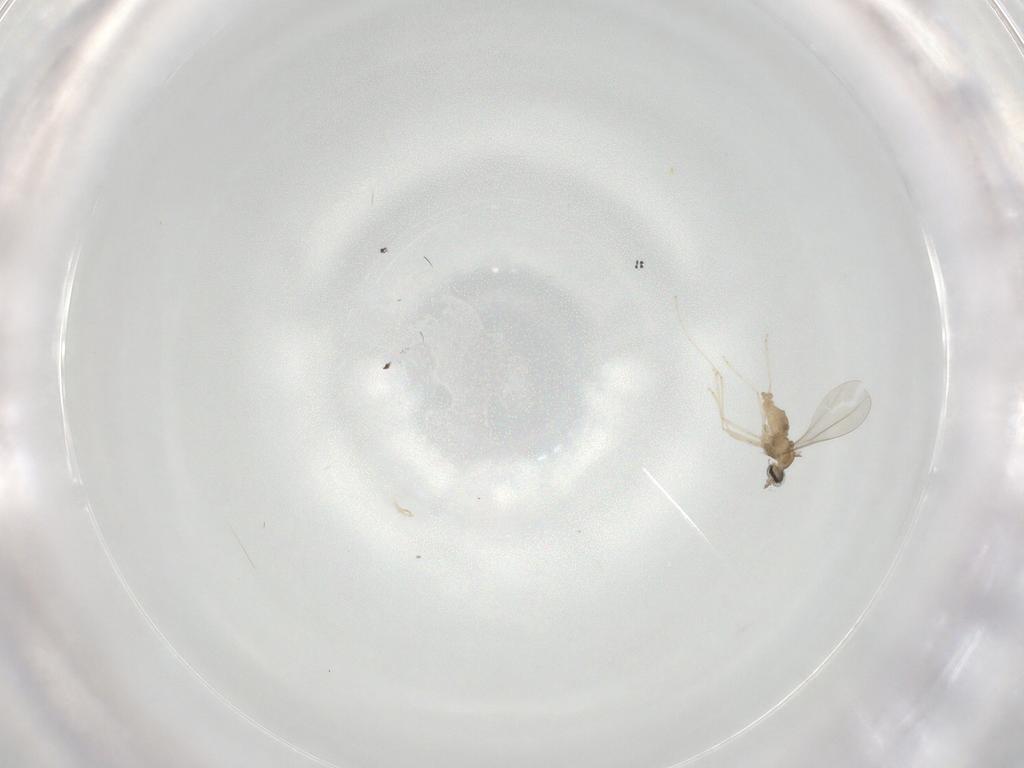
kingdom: Animalia
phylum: Arthropoda
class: Insecta
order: Diptera
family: Cecidomyiidae
